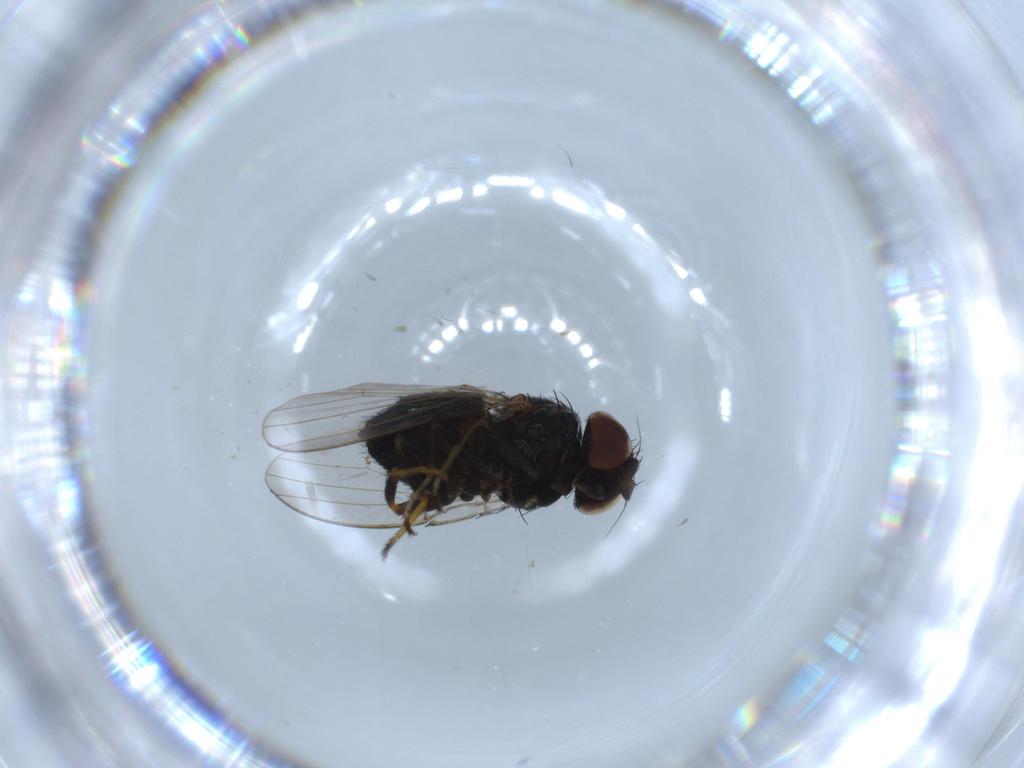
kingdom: Animalia
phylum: Arthropoda
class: Insecta
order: Diptera
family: Milichiidae
